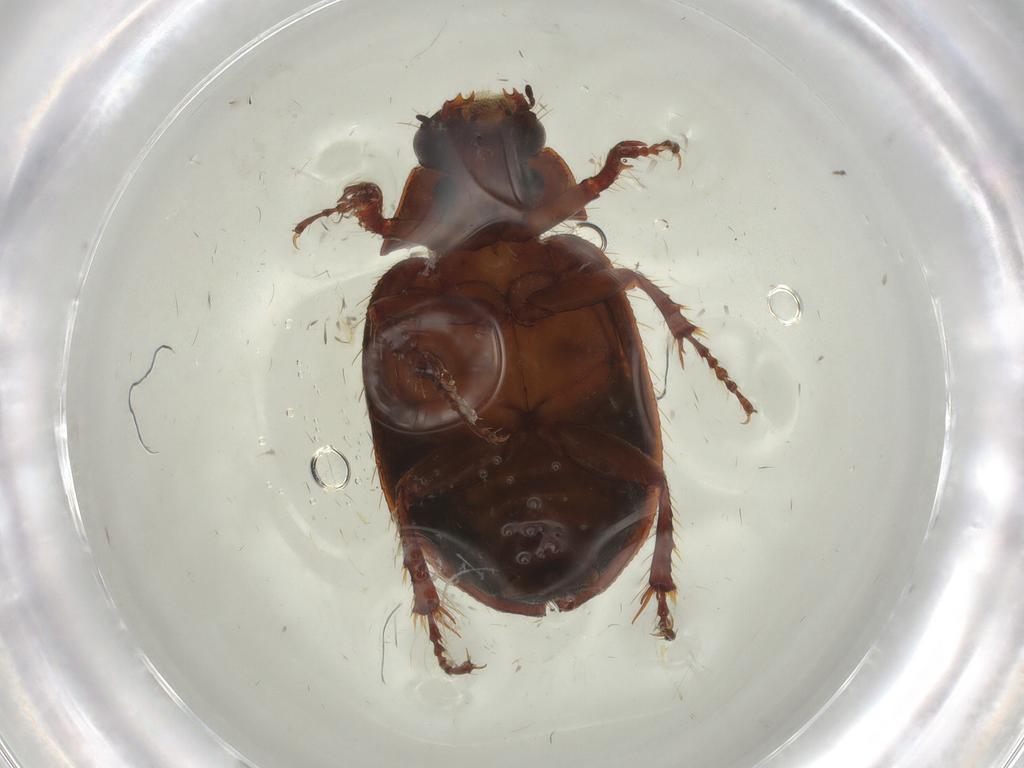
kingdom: Animalia
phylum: Arthropoda
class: Insecta
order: Coleoptera
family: Hybosoridae
